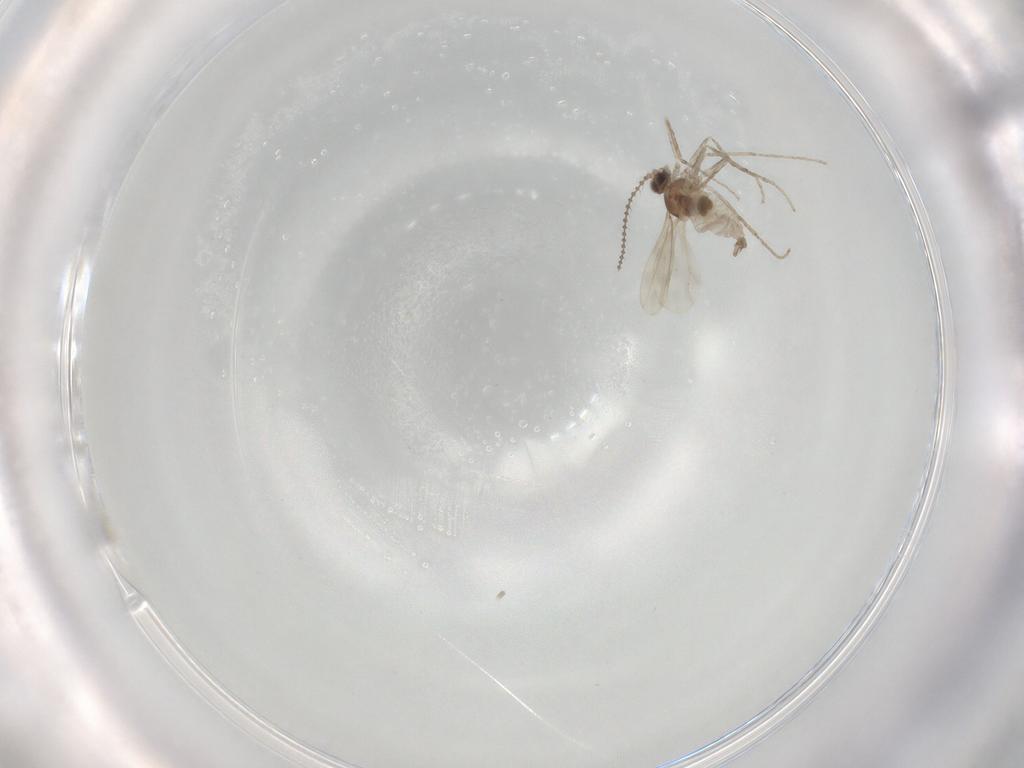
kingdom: Animalia
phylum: Arthropoda
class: Insecta
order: Diptera
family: Cecidomyiidae
